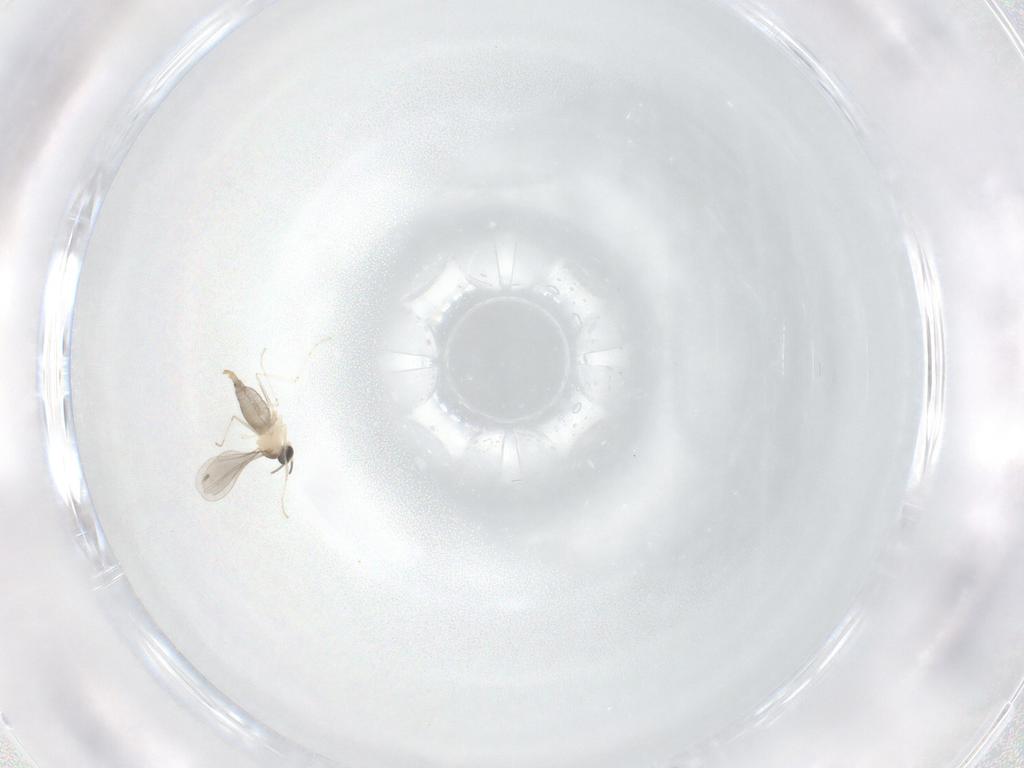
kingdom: Animalia
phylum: Arthropoda
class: Insecta
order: Diptera
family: Cecidomyiidae
